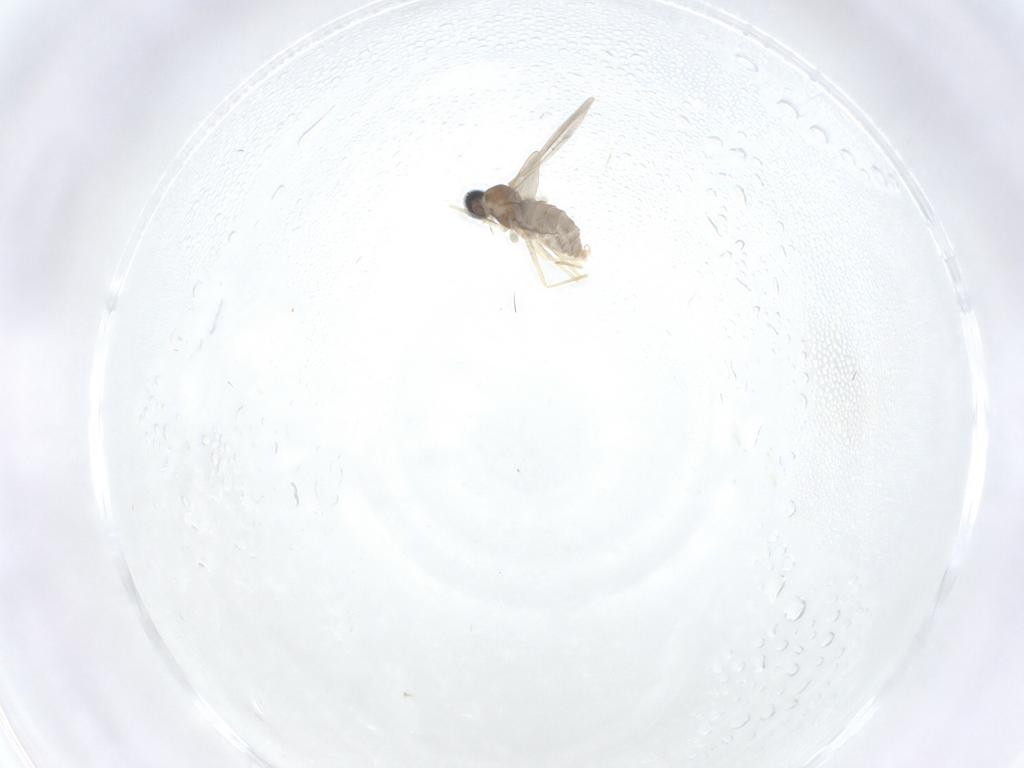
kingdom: Animalia
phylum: Arthropoda
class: Insecta
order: Diptera
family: Cecidomyiidae
